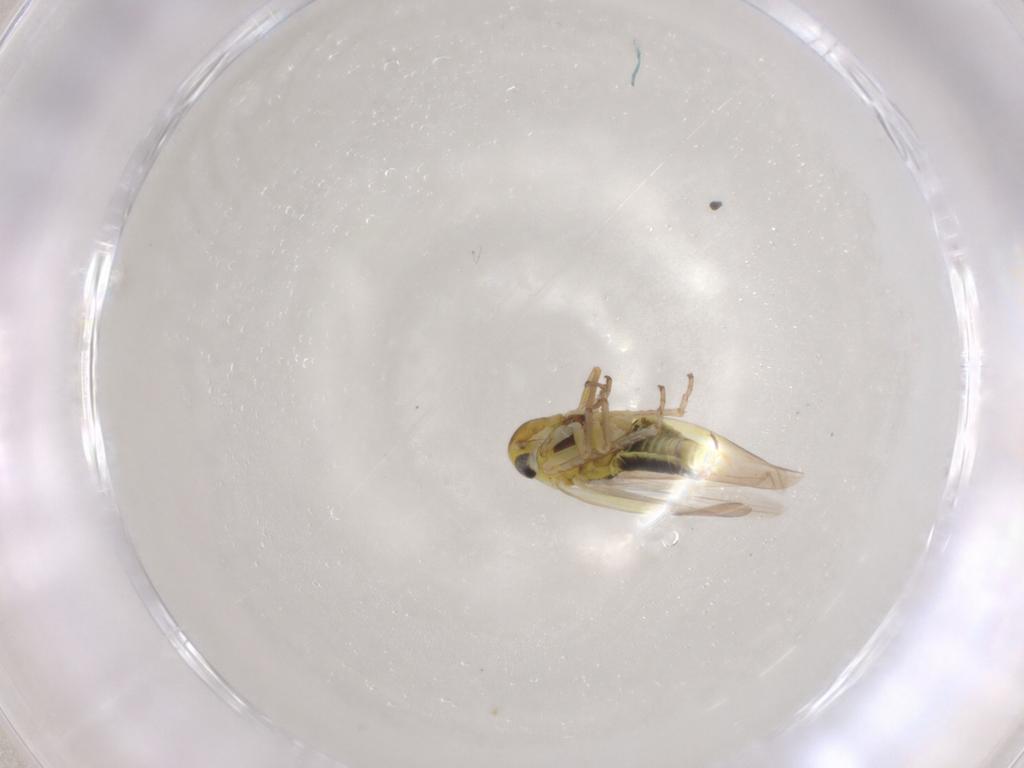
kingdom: Animalia
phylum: Arthropoda
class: Insecta
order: Hemiptera
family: Cicadellidae
